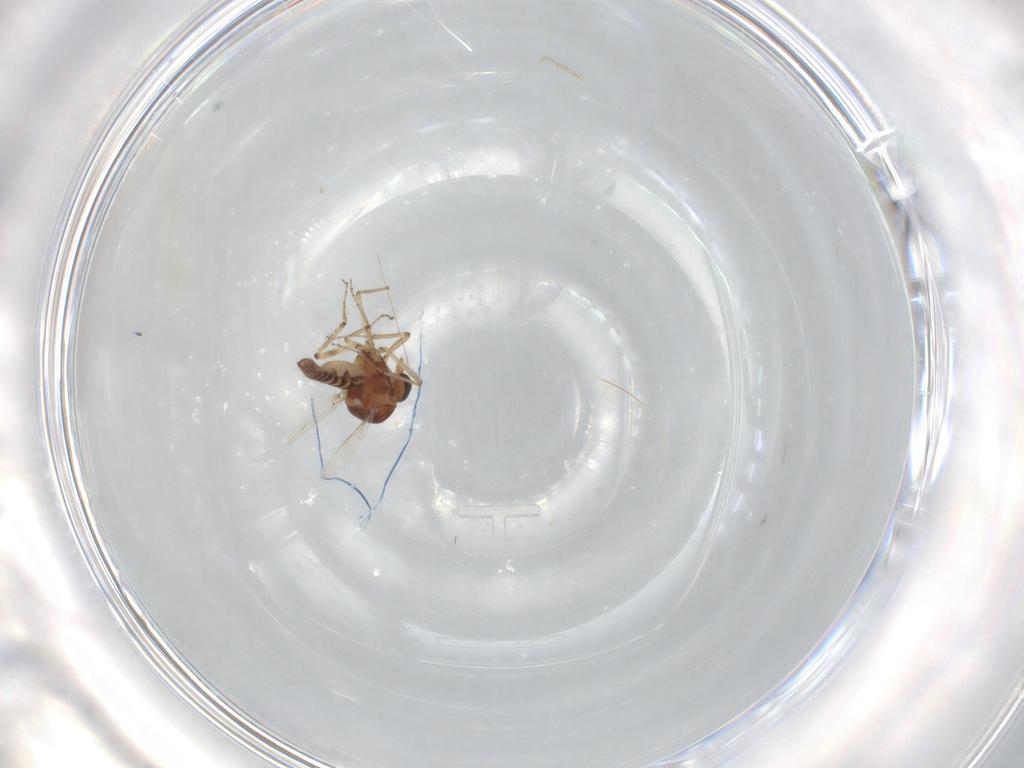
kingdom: Animalia
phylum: Arthropoda
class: Insecta
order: Diptera
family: Ceratopogonidae
